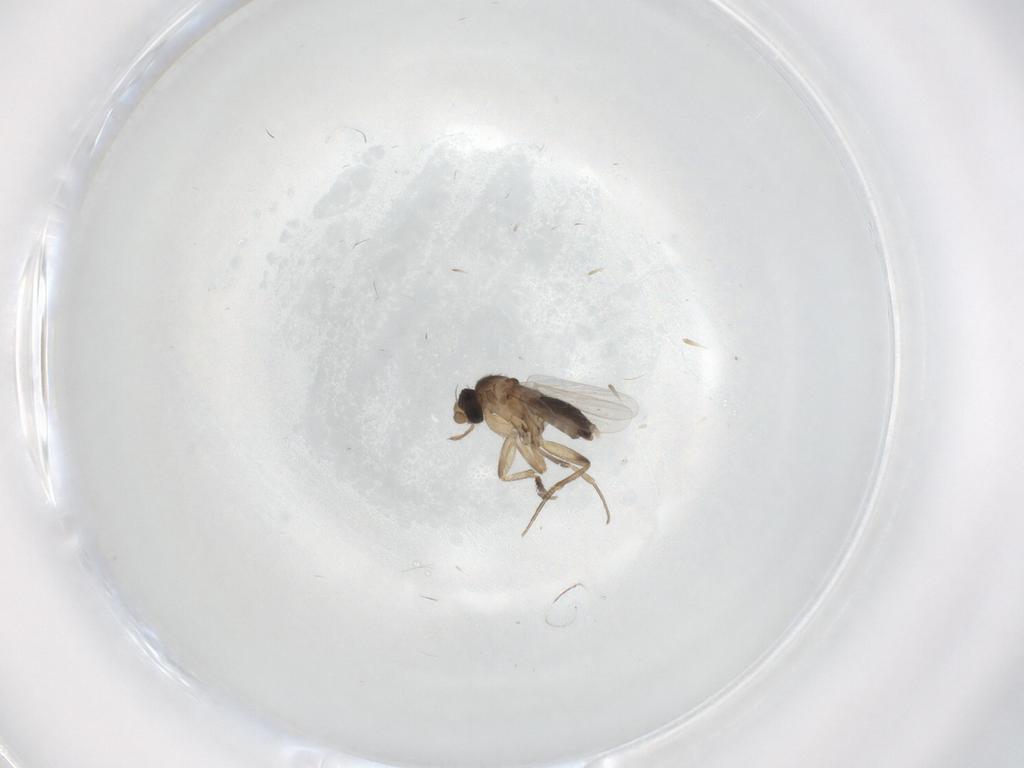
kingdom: Animalia
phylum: Arthropoda
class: Insecta
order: Diptera
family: Phoridae
